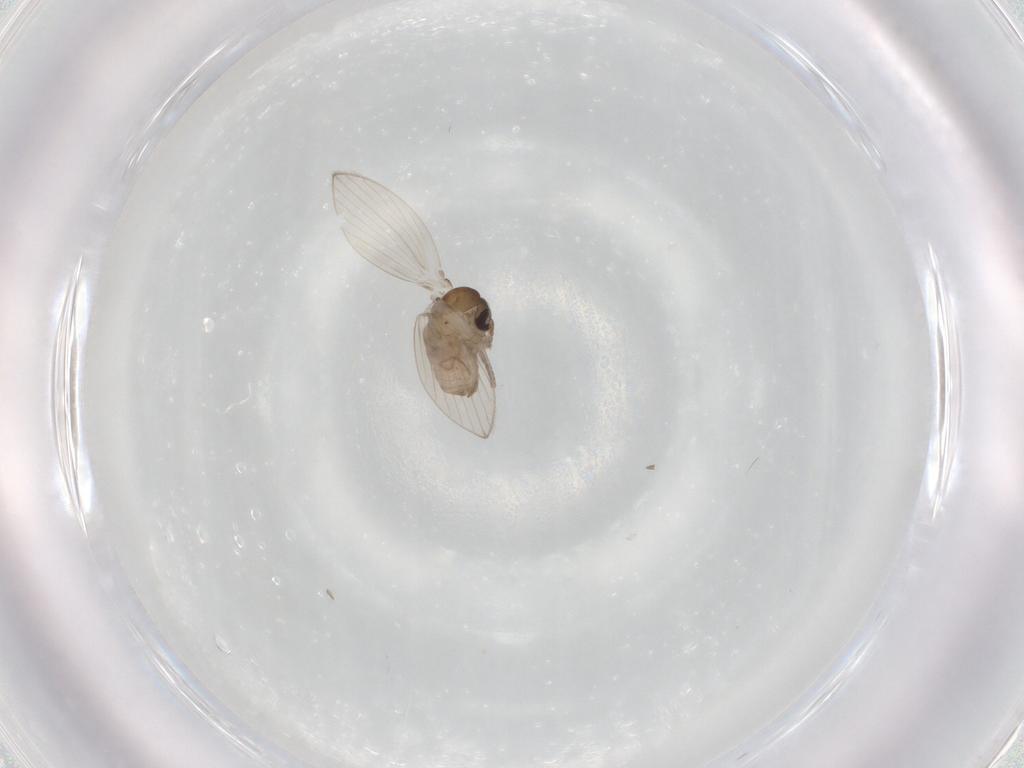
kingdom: Animalia
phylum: Arthropoda
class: Insecta
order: Diptera
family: Psychodidae
